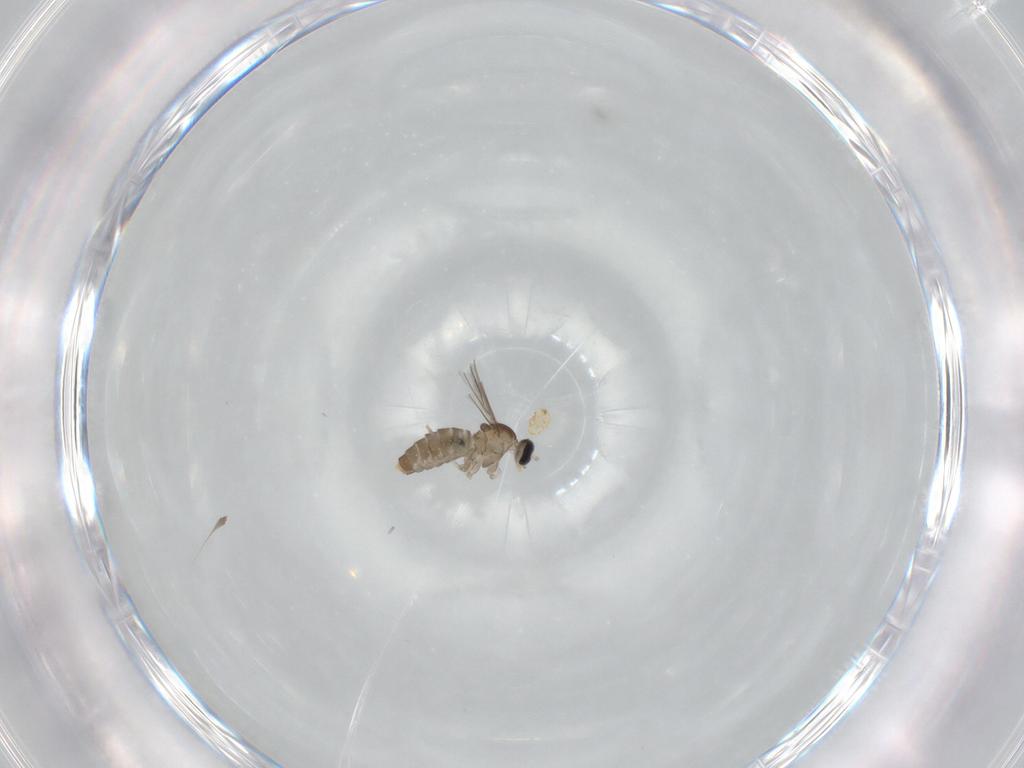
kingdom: Animalia
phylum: Arthropoda
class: Insecta
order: Diptera
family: Cecidomyiidae
